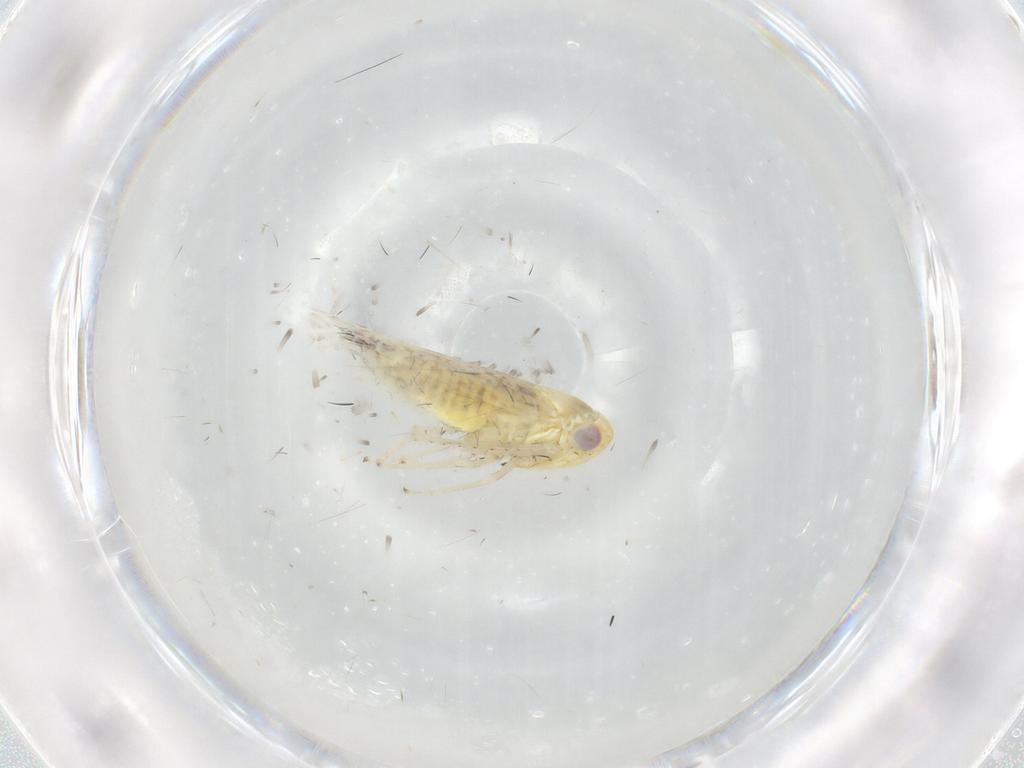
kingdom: Animalia
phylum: Arthropoda
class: Insecta
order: Hemiptera
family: Cicadellidae
